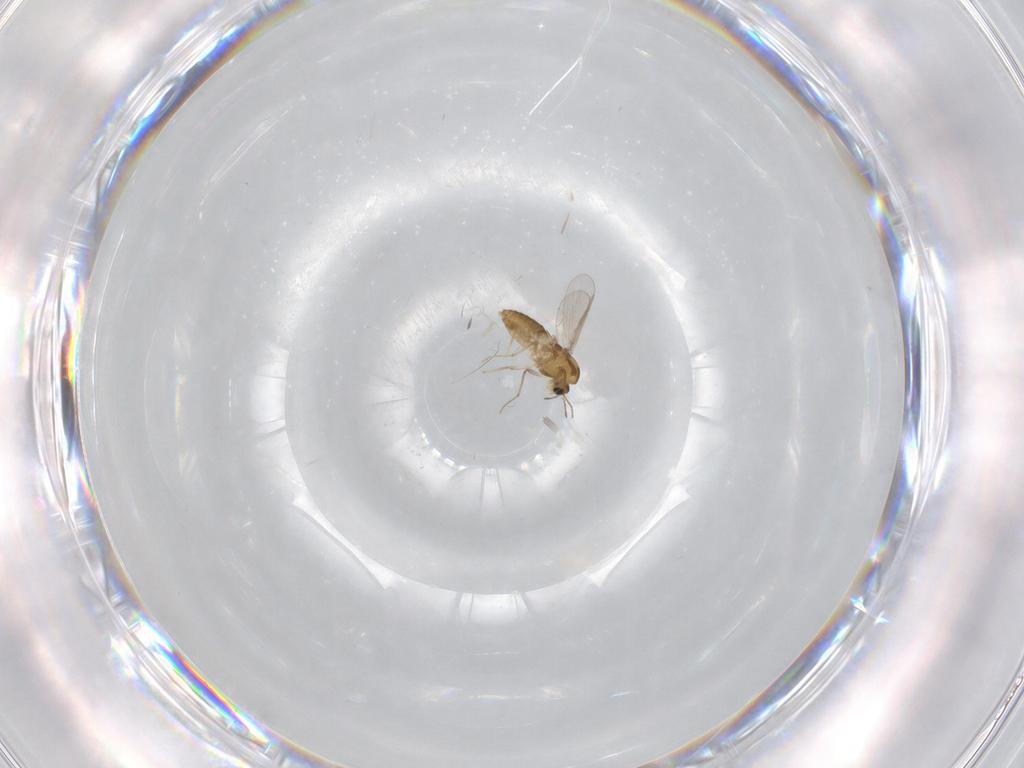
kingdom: Animalia
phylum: Arthropoda
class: Insecta
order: Diptera
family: Chironomidae
